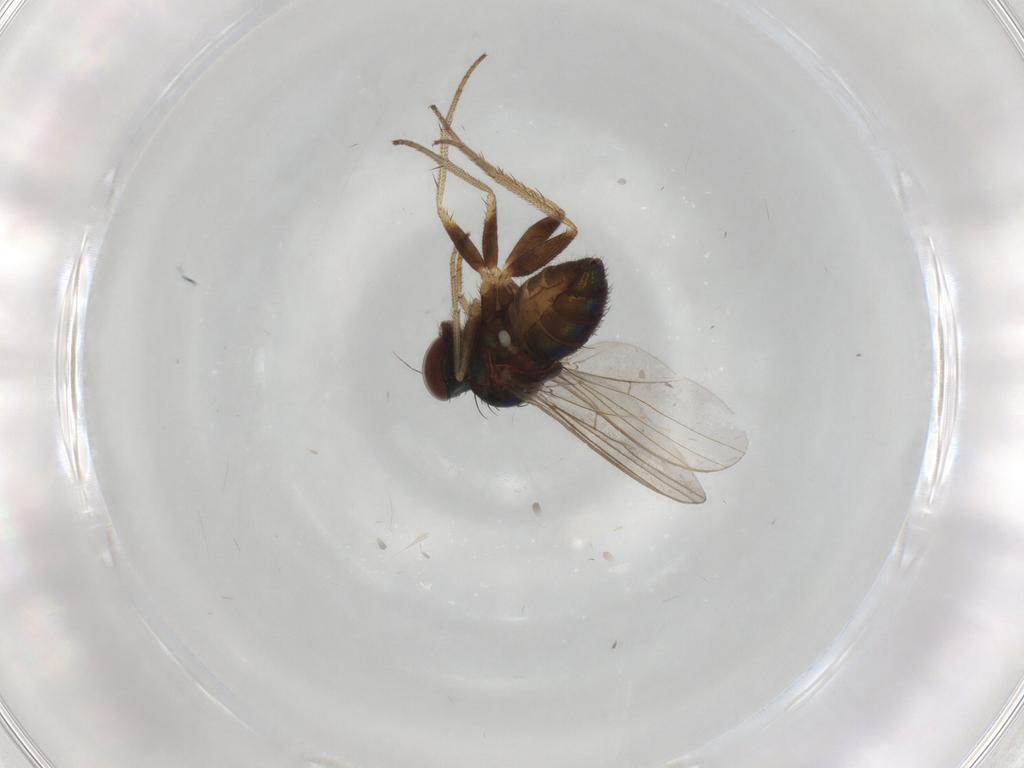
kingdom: Animalia
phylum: Arthropoda
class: Insecta
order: Diptera
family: Dolichopodidae
